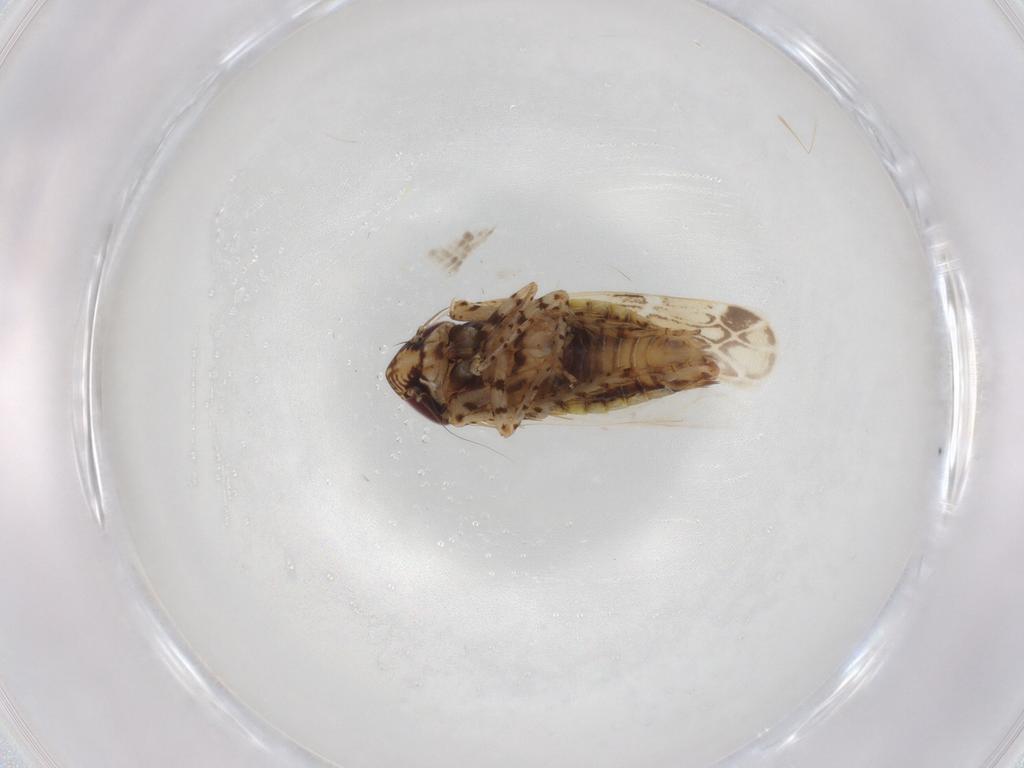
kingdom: Animalia
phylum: Arthropoda
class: Insecta
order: Hemiptera
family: Cicadellidae
